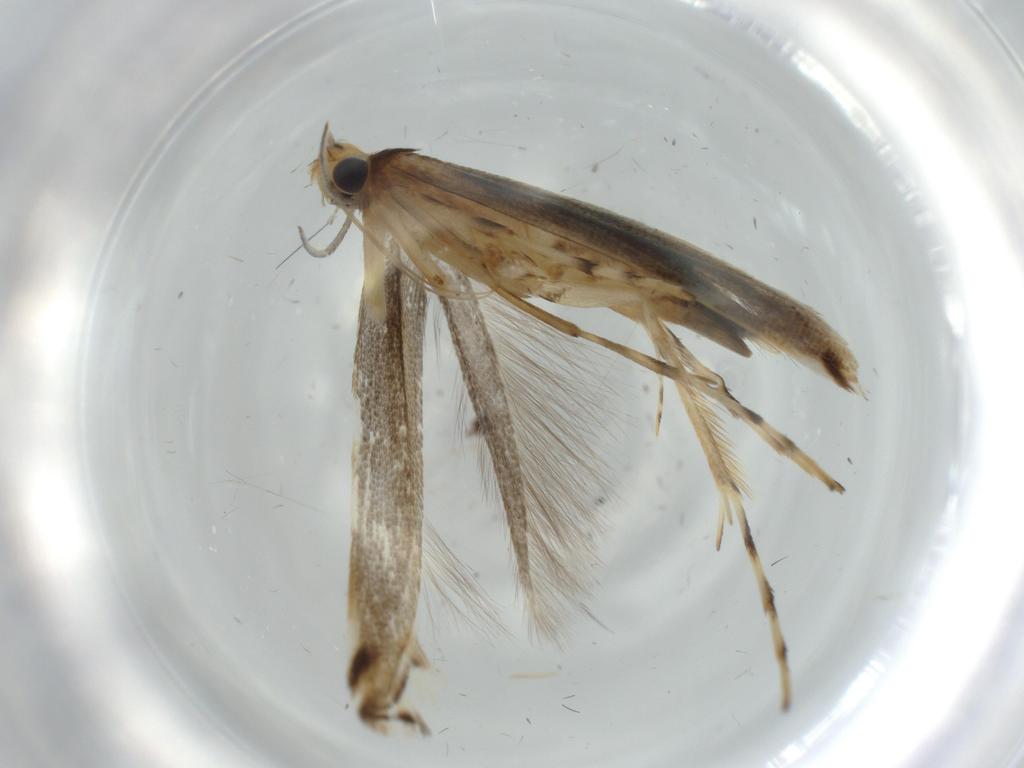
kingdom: Animalia
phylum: Arthropoda
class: Insecta
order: Lepidoptera
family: Gracillariidae
